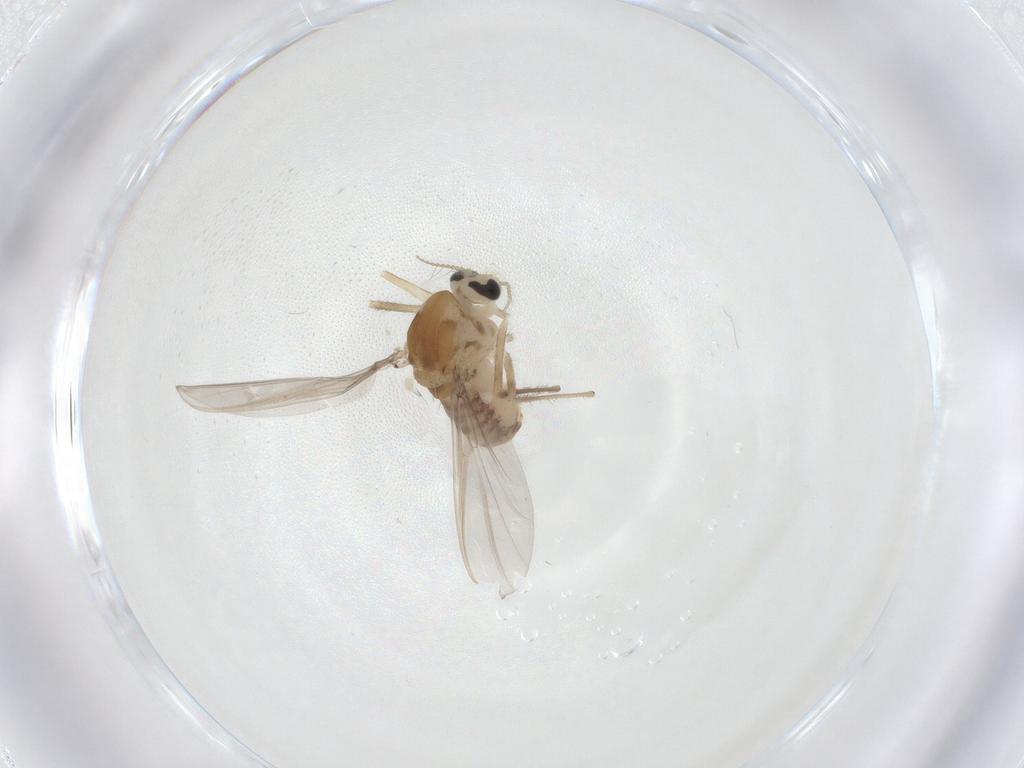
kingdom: Animalia
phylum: Arthropoda
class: Insecta
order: Diptera
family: Chironomidae
